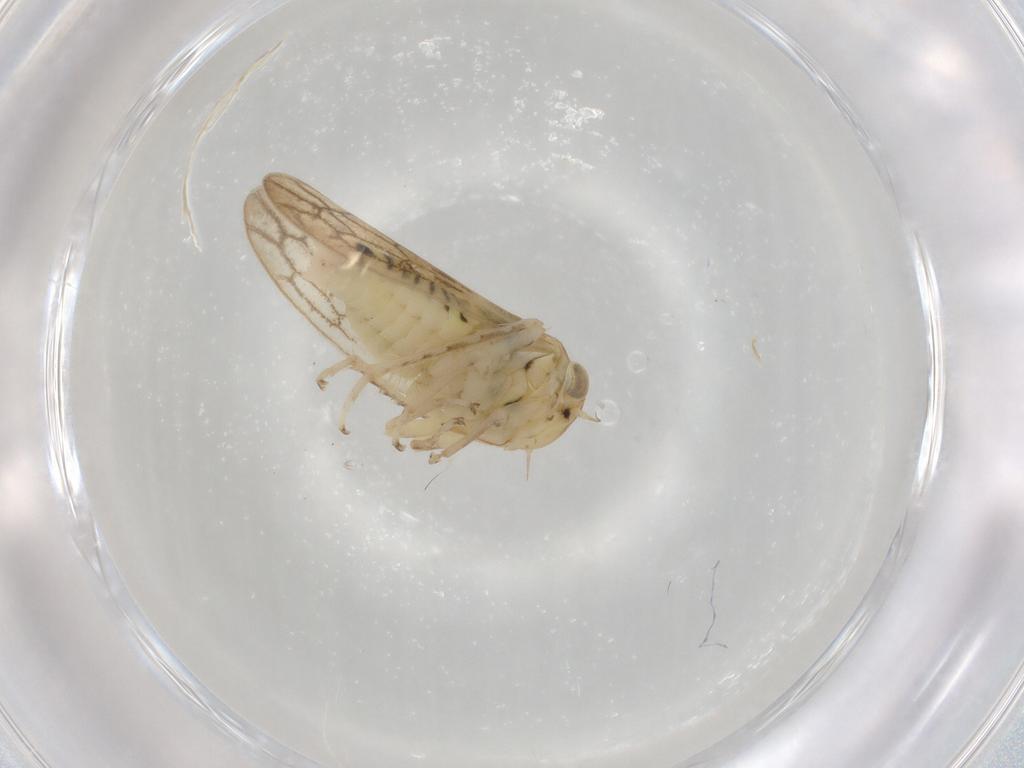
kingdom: Animalia
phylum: Arthropoda
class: Insecta
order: Hemiptera
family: Cicadellidae
